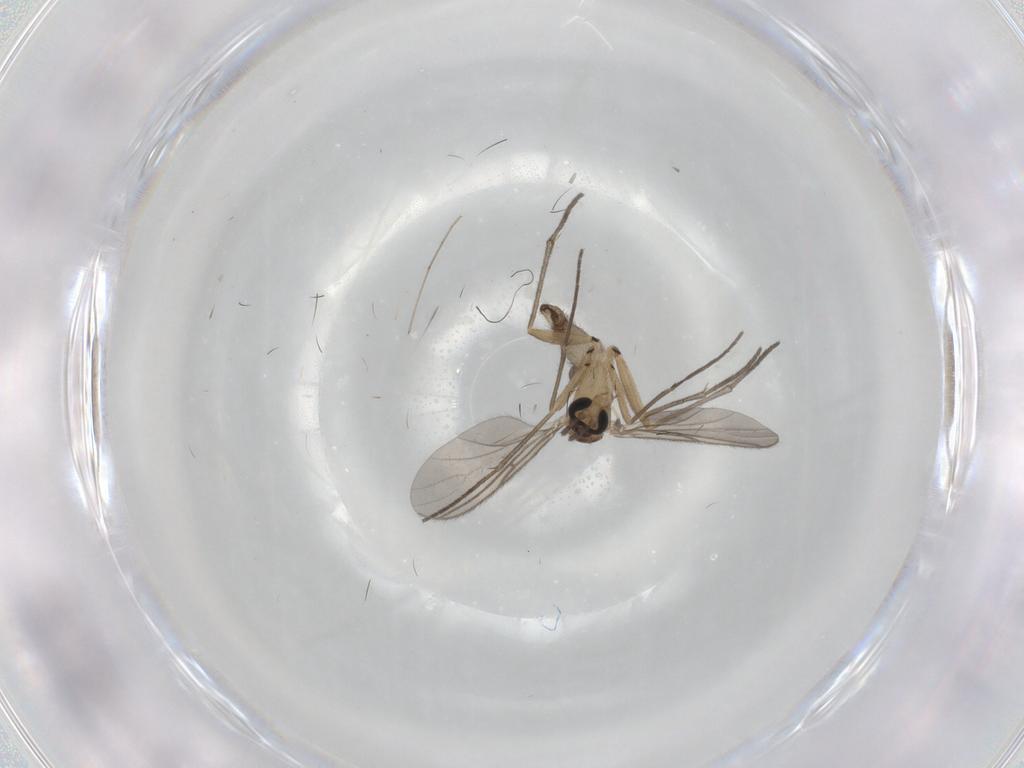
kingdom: Animalia
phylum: Arthropoda
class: Insecta
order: Diptera
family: Sciaridae
